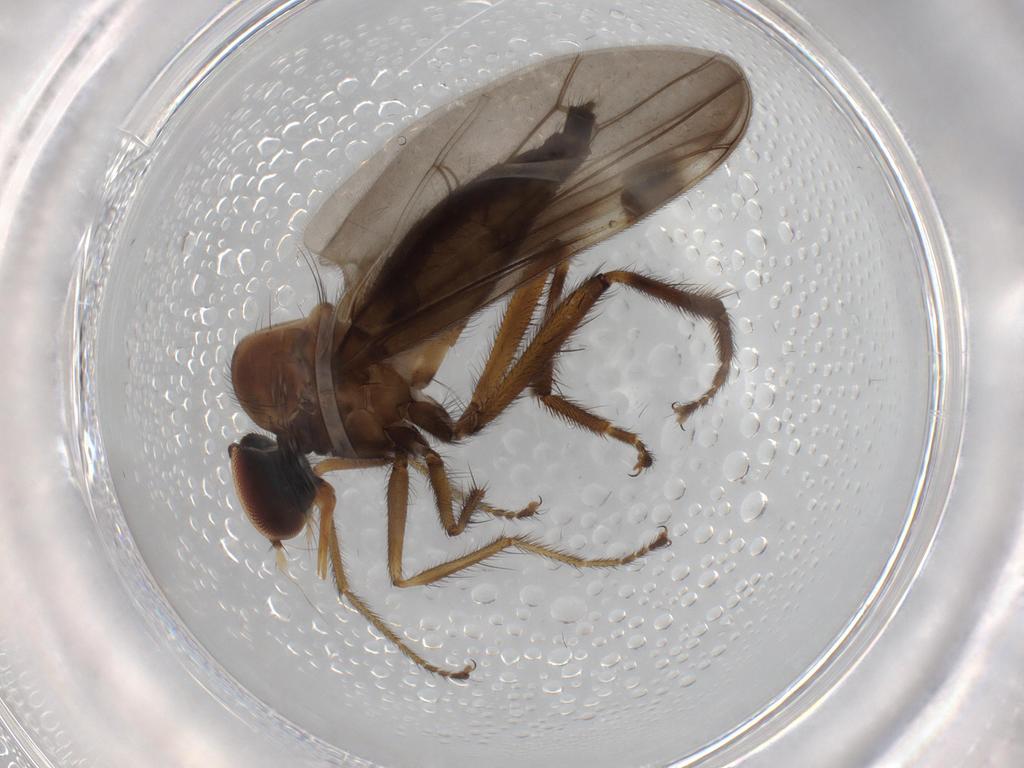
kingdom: Animalia
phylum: Arthropoda
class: Insecta
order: Diptera
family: Hybotidae
